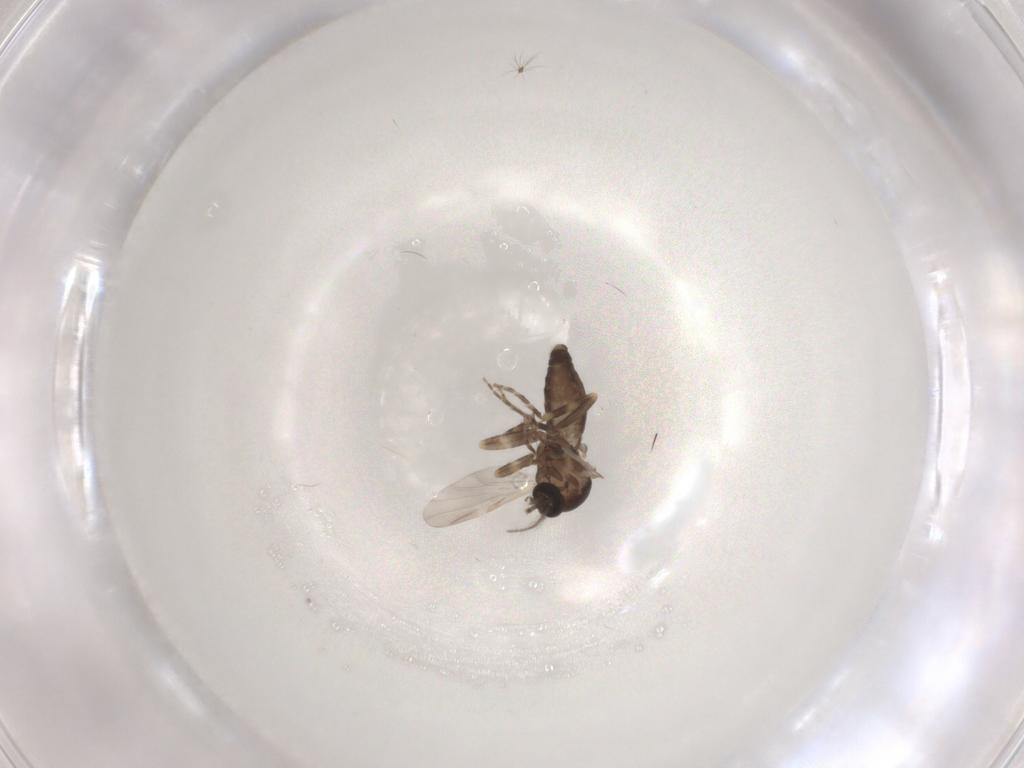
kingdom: Animalia
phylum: Arthropoda
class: Insecta
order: Diptera
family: Ceratopogonidae
